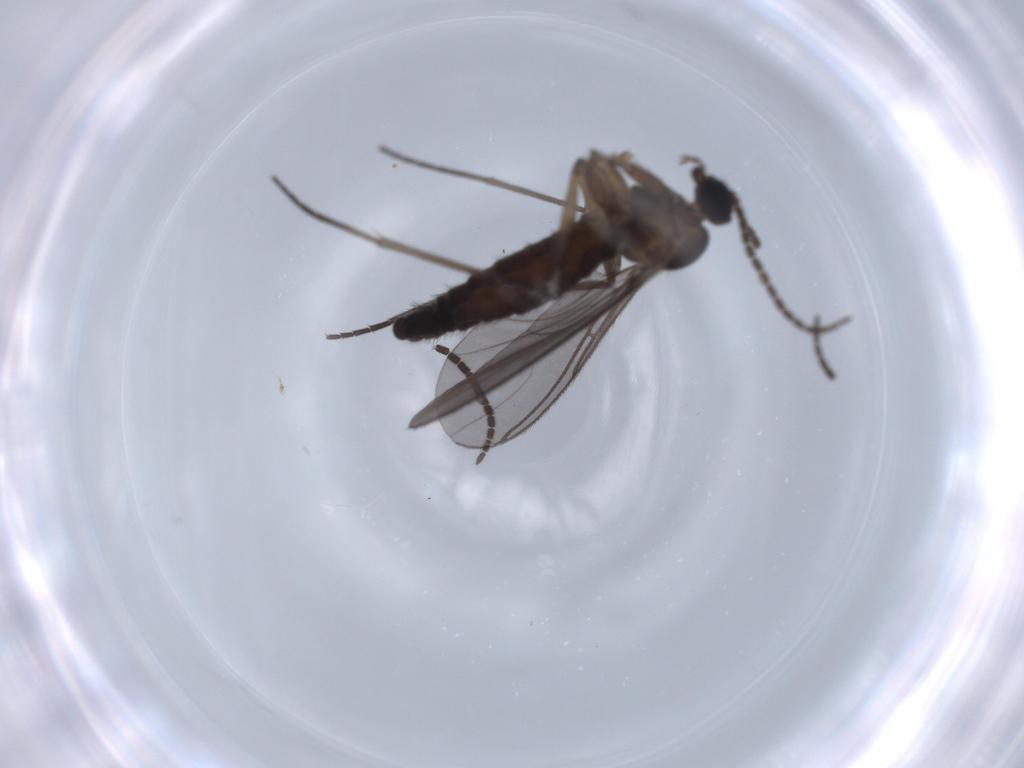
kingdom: Animalia
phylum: Arthropoda
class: Insecta
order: Diptera
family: Sciaridae
